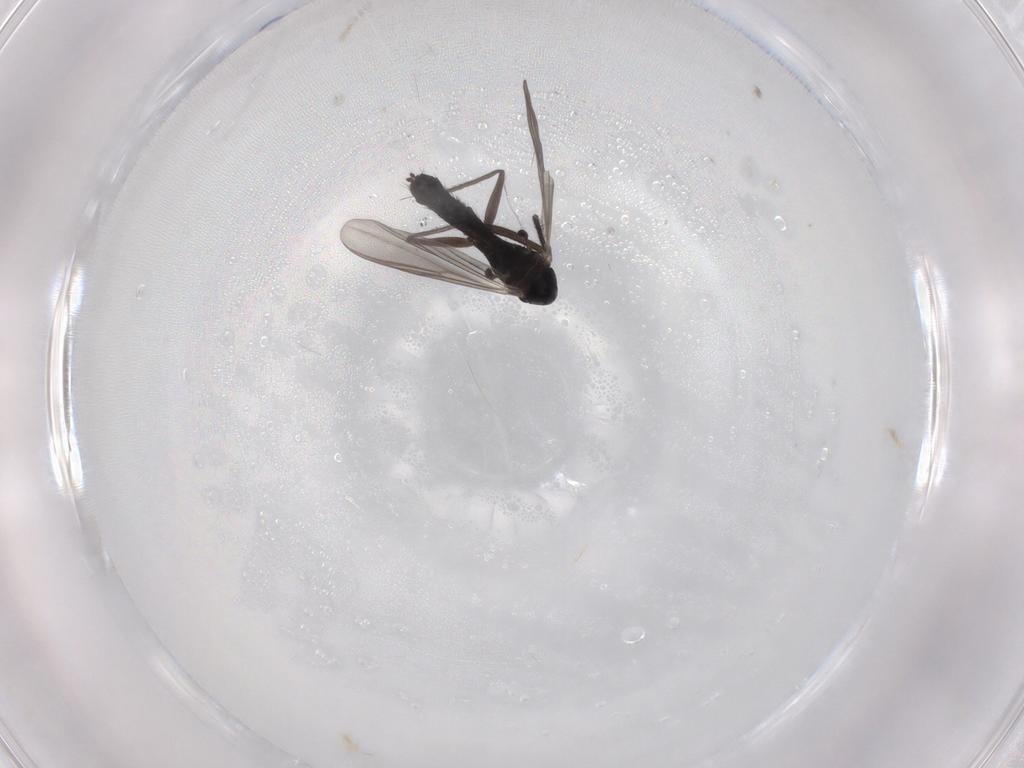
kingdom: Animalia
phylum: Arthropoda
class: Insecta
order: Diptera
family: Chironomidae
